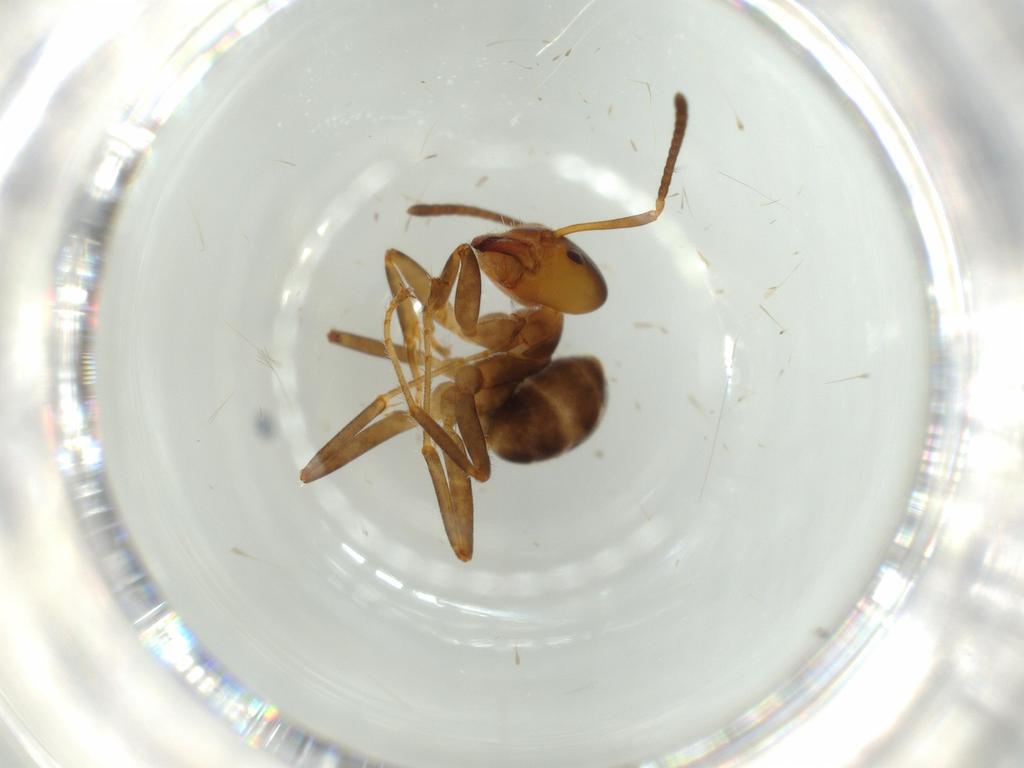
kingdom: Animalia
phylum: Arthropoda
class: Insecta
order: Hymenoptera
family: Formicidae
